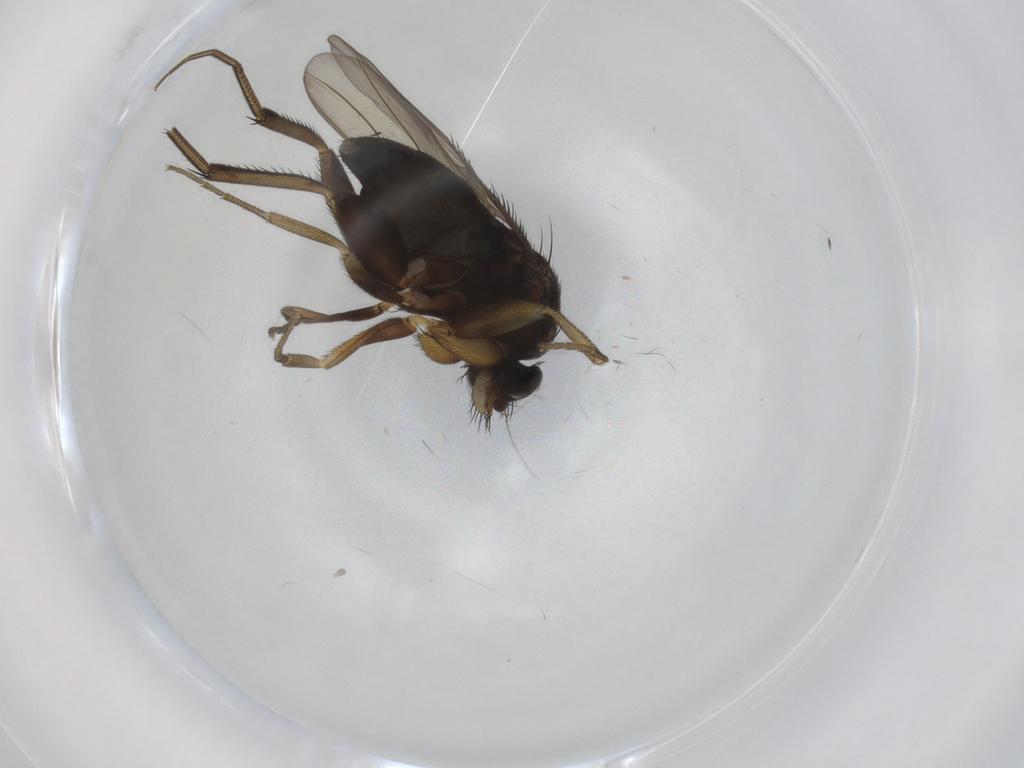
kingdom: Animalia
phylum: Arthropoda
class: Insecta
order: Diptera
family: Phoridae
